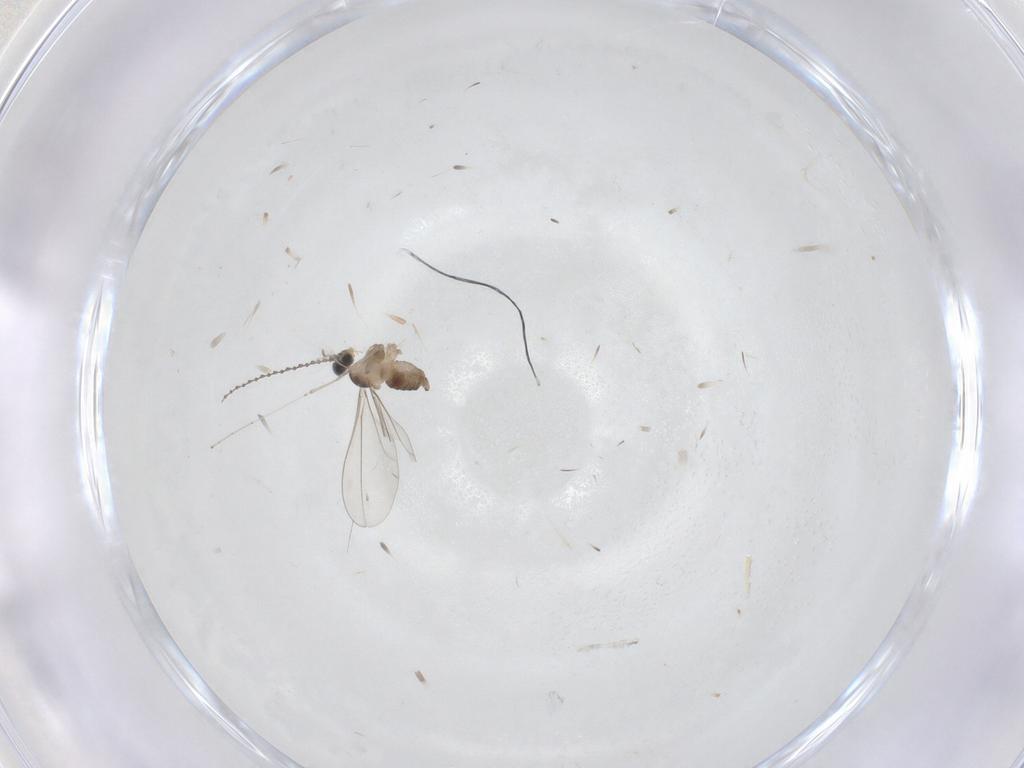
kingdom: Animalia
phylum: Arthropoda
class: Insecta
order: Diptera
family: Cecidomyiidae
